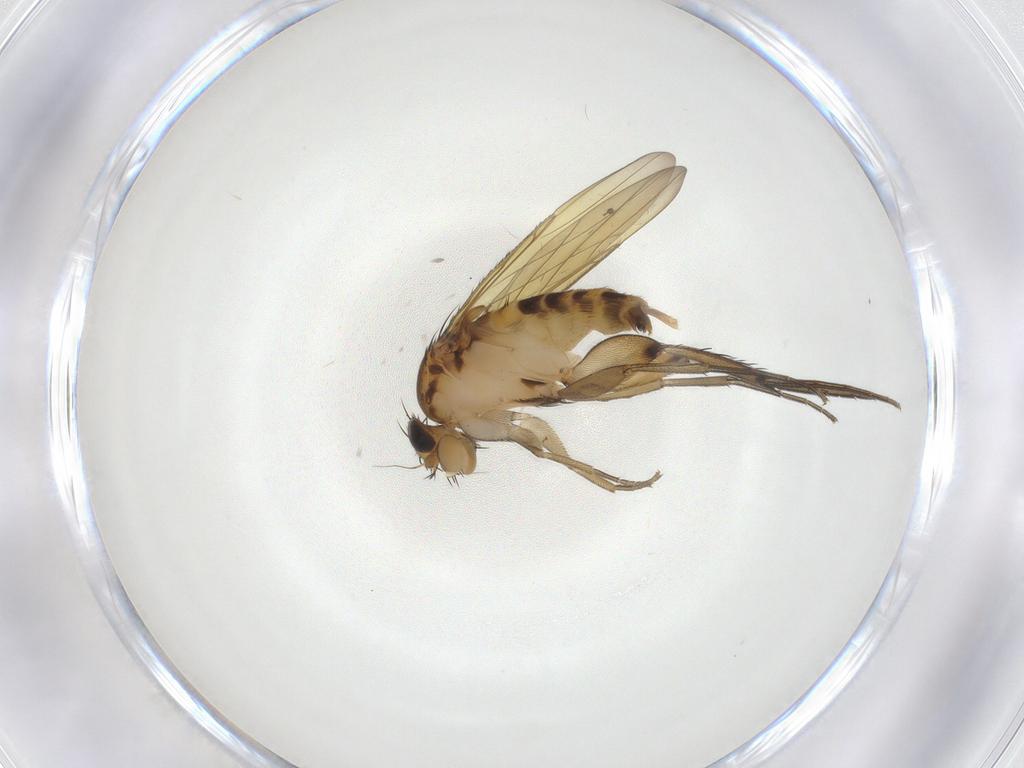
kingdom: Animalia
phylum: Arthropoda
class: Insecta
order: Diptera
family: Phoridae
